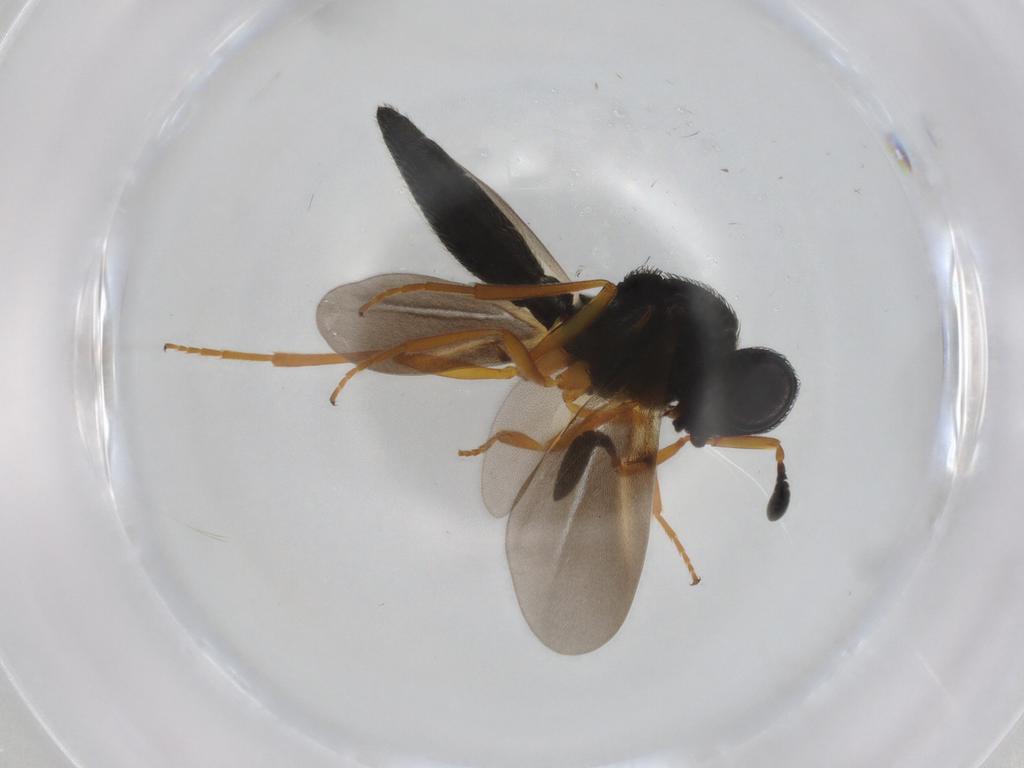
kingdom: Animalia
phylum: Arthropoda
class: Insecta
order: Hymenoptera
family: Scelionidae
